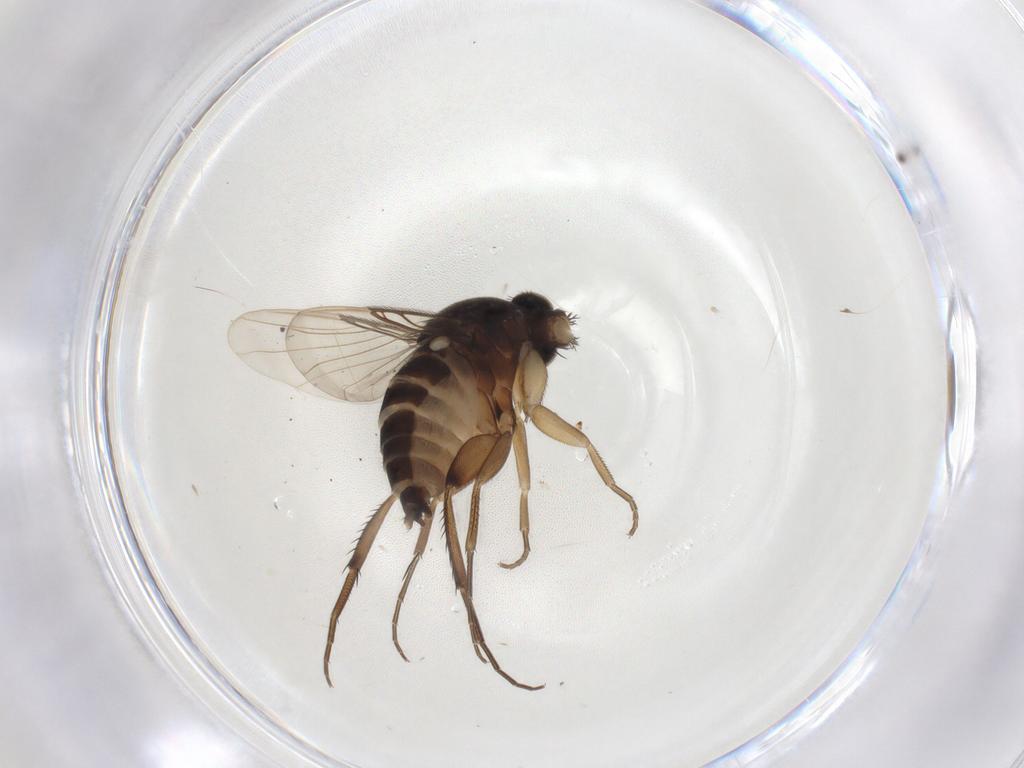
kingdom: Animalia
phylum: Arthropoda
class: Insecta
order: Diptera
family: Phoridae
